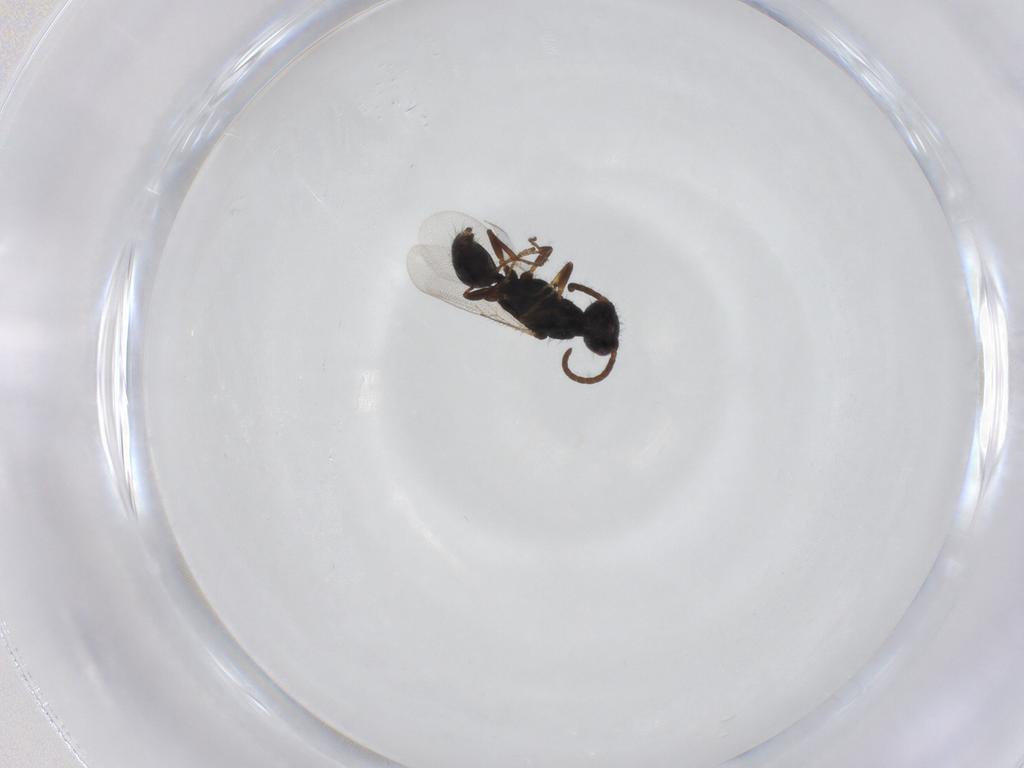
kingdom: Animalia
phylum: Arthropoda
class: Insecta
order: Hymenoptera
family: Bethylidae
